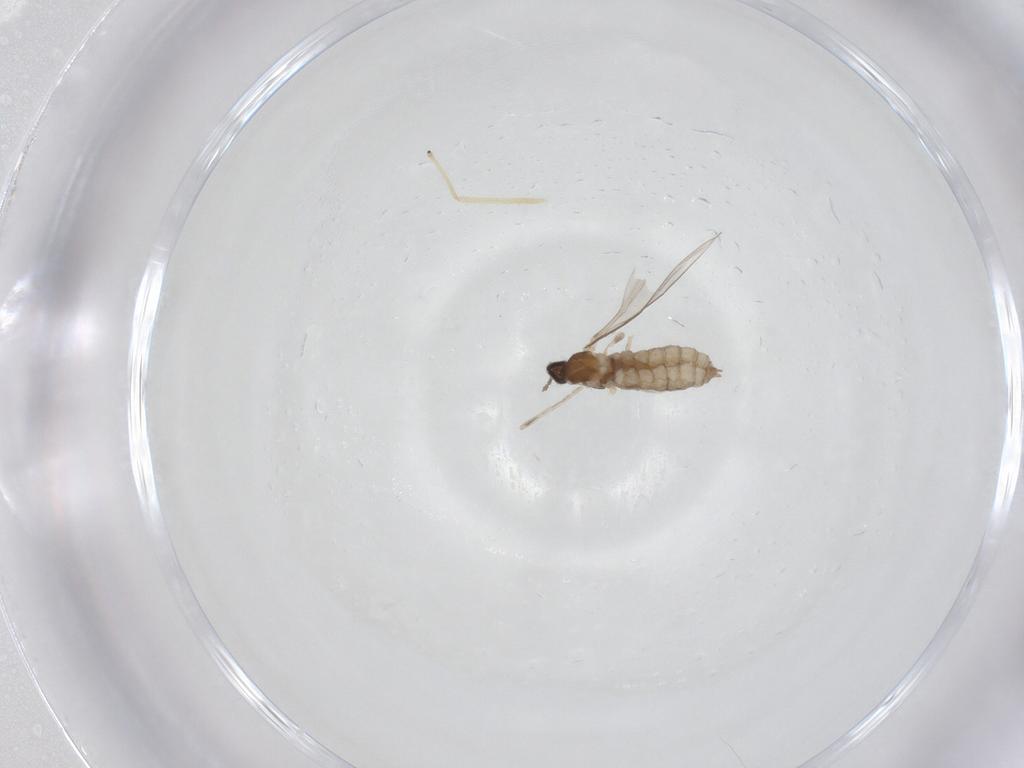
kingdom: Animalia
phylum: Arthropoda
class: Insecta
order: Diptera
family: Cecidomyiidae
